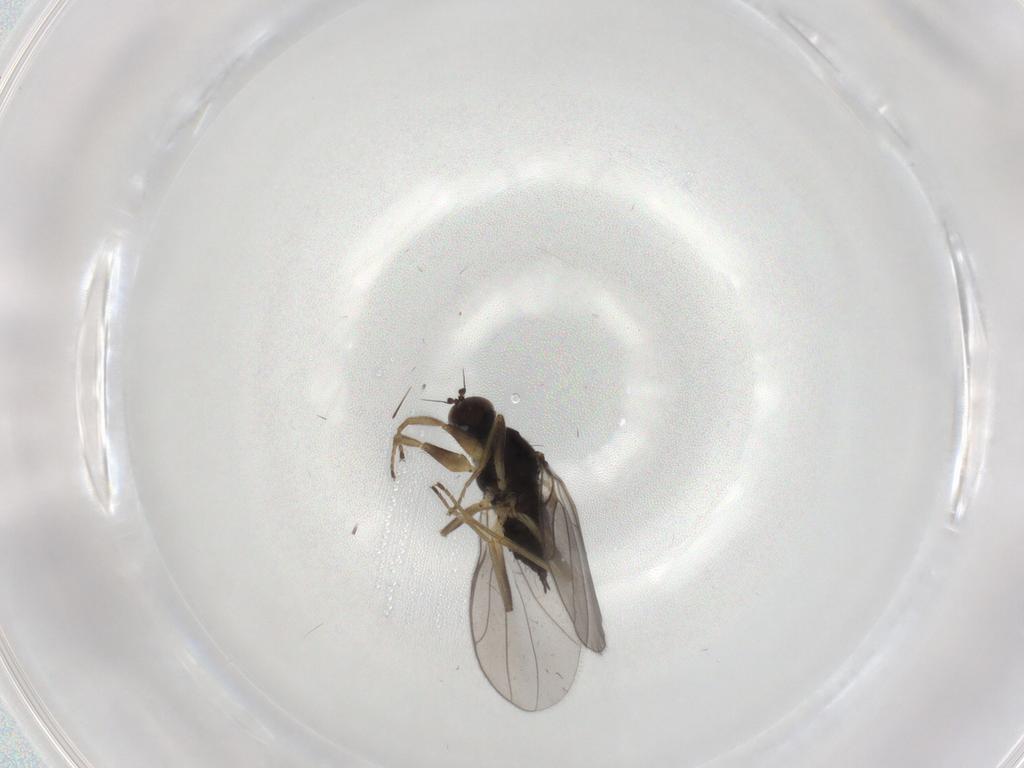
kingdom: Animalia
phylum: Arthropoda
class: Insecta
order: Diptera
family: Hybotidae
